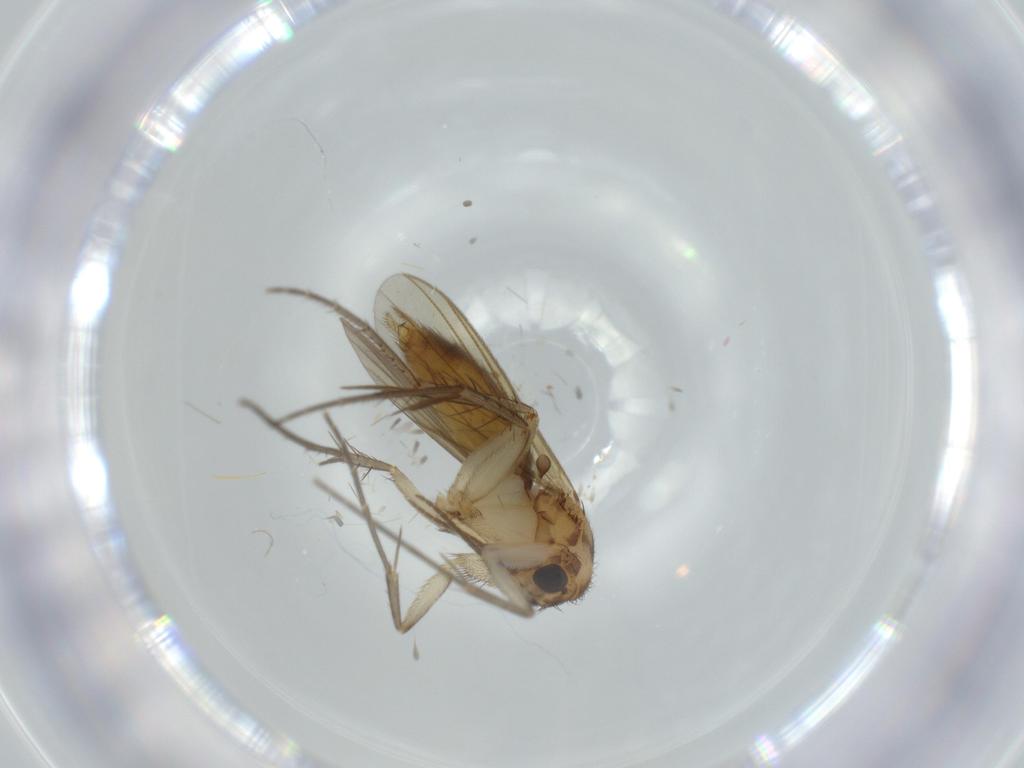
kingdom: Animalia
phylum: Arthropoda
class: Insecta
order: Diptera
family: Phoridae
